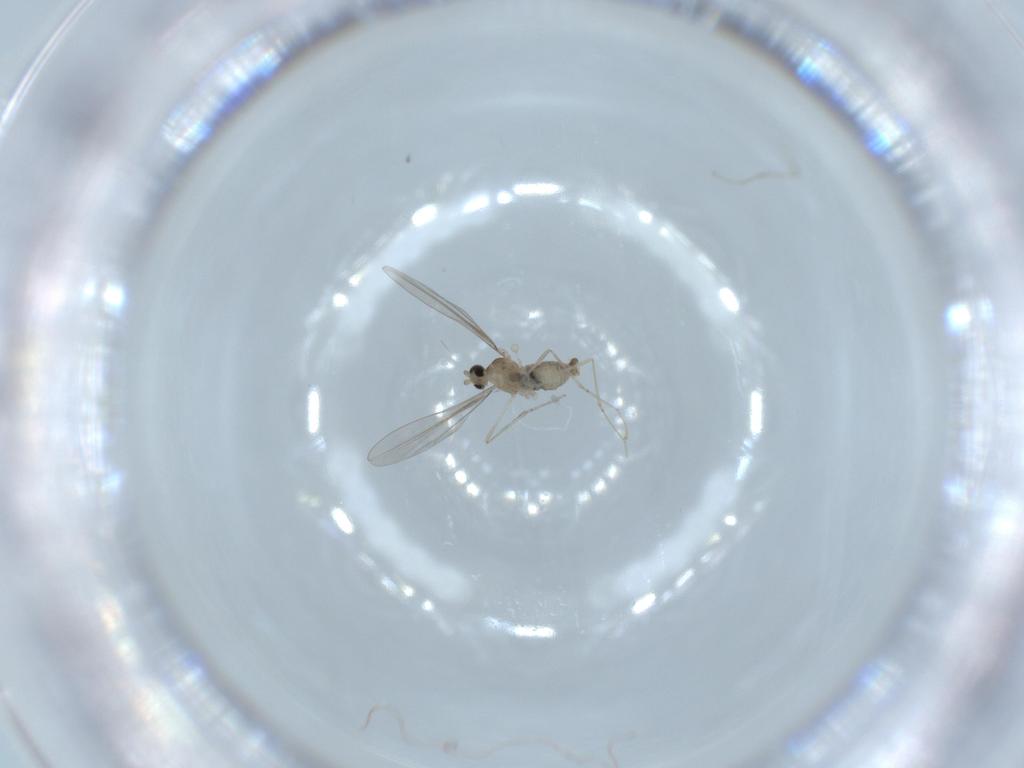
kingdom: Animalia
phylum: Arthropoda
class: Insecta
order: Diptera
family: Cecidomyiidae
